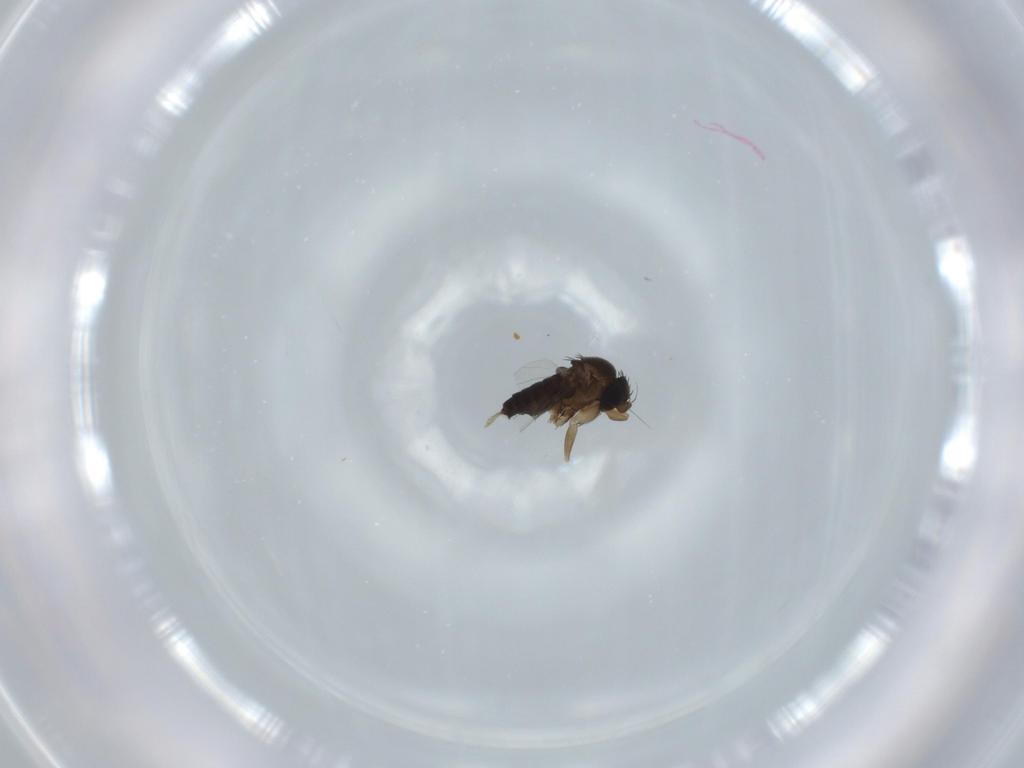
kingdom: Animalia
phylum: Arthropoda
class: Insecta
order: Diptera
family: Phoridae
